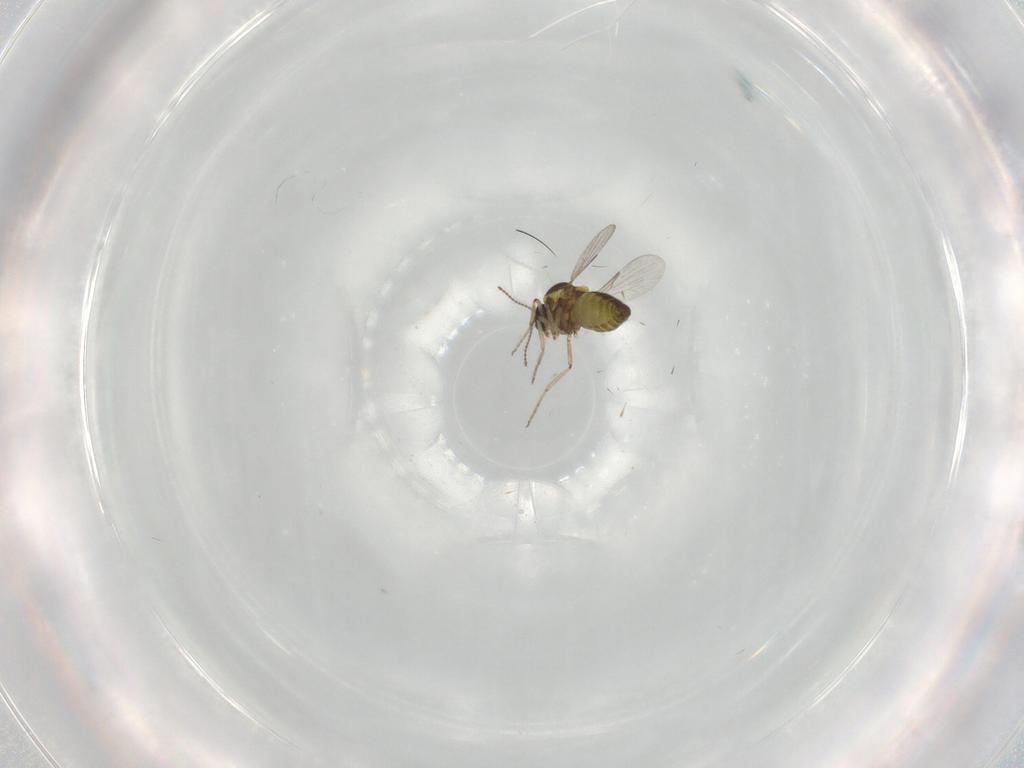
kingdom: Animalia
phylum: Arthropoda
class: Insecta
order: Diptera
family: Ceratopogonidae
